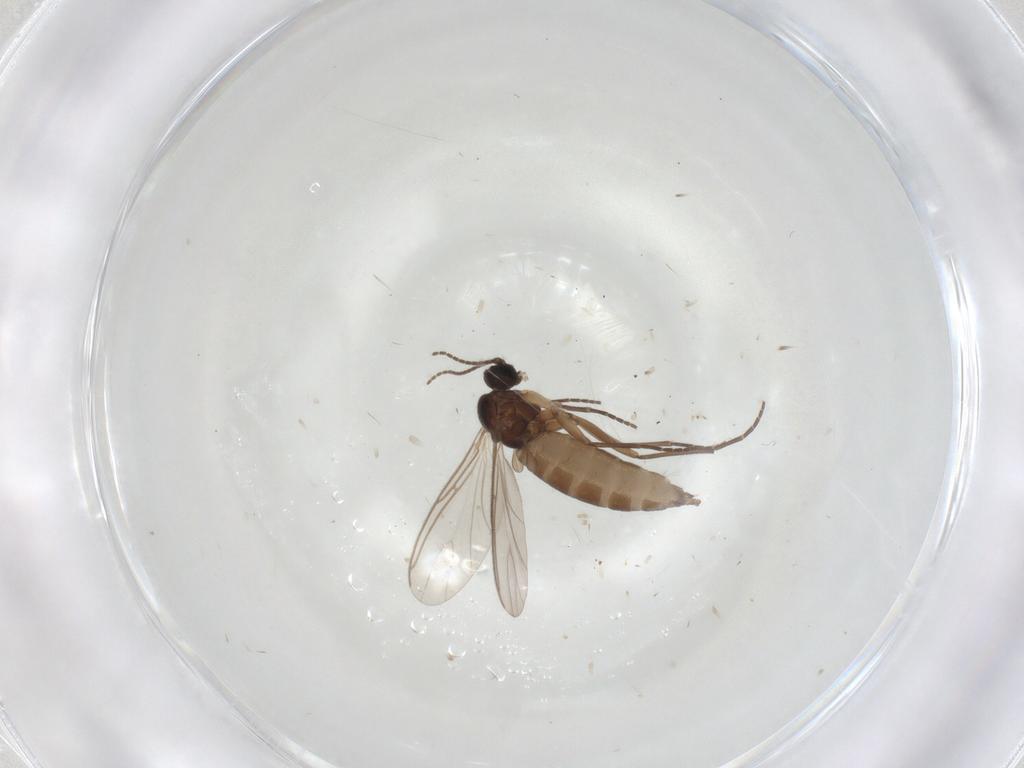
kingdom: Animalia
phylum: Arthropoda
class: Insecta
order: Diptera
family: Sciaridae
